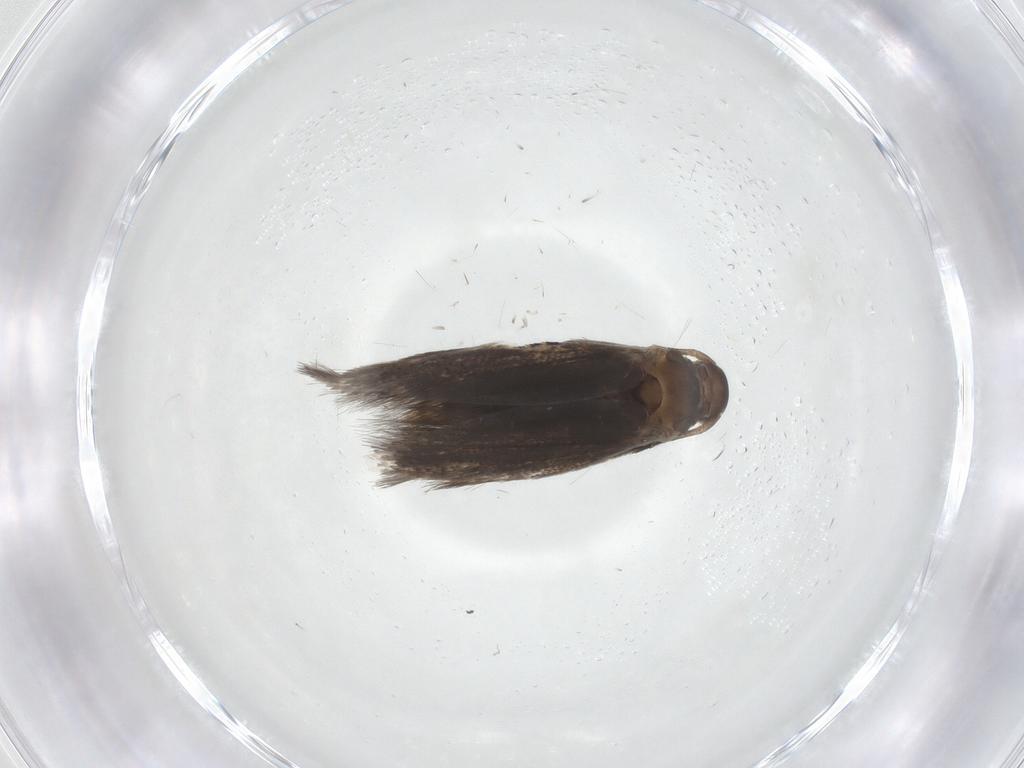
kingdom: Animalia
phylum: Arthropoda
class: Insecta
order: Lepidoptera
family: Elachistidae
